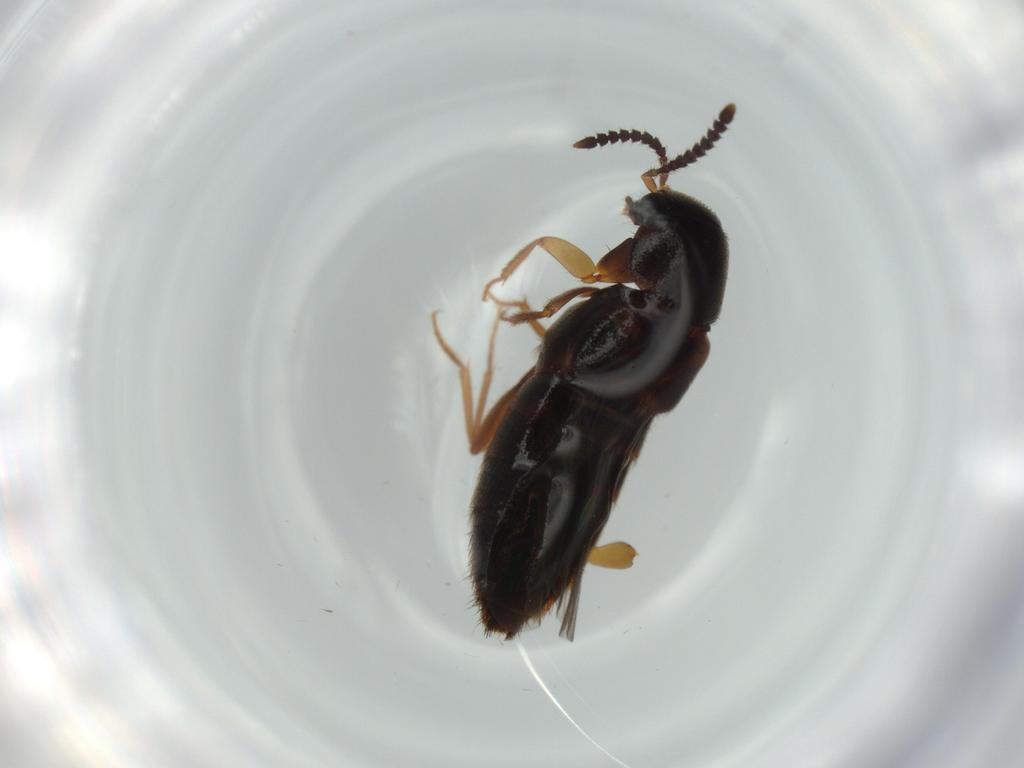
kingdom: Animalia
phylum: Arthropoda
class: Insecta
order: Coleoptera
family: Staphylinidae
